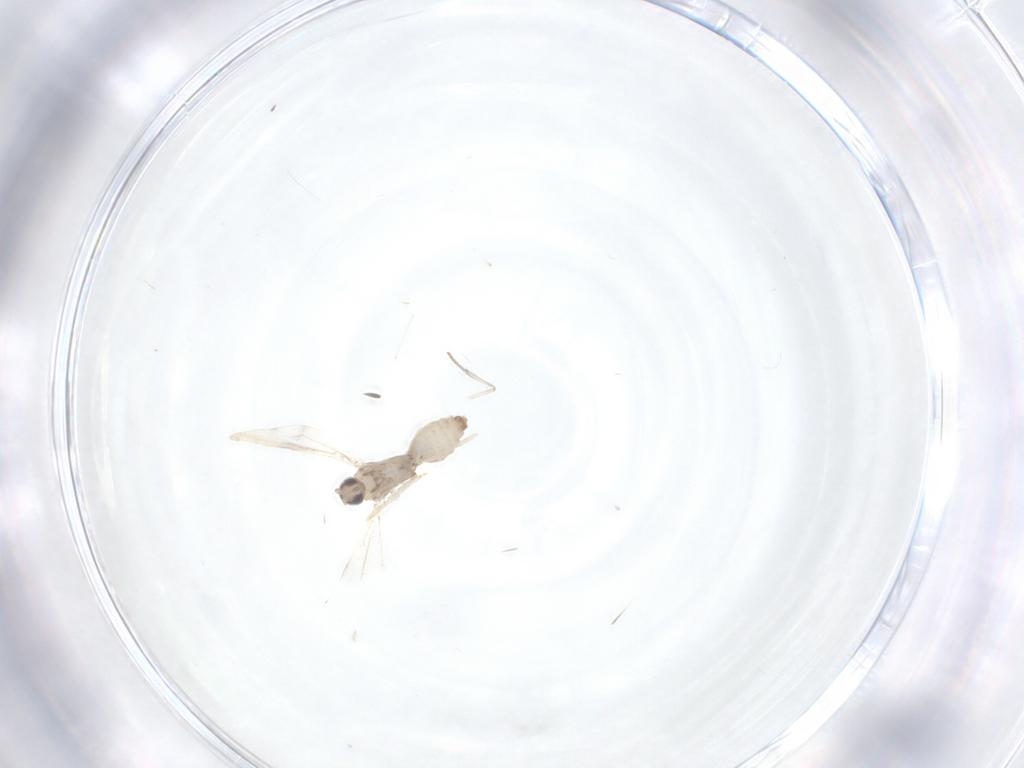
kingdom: Animalia
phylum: Arthropoda
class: Insecta
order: Diptera
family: Cecidomyiidae
